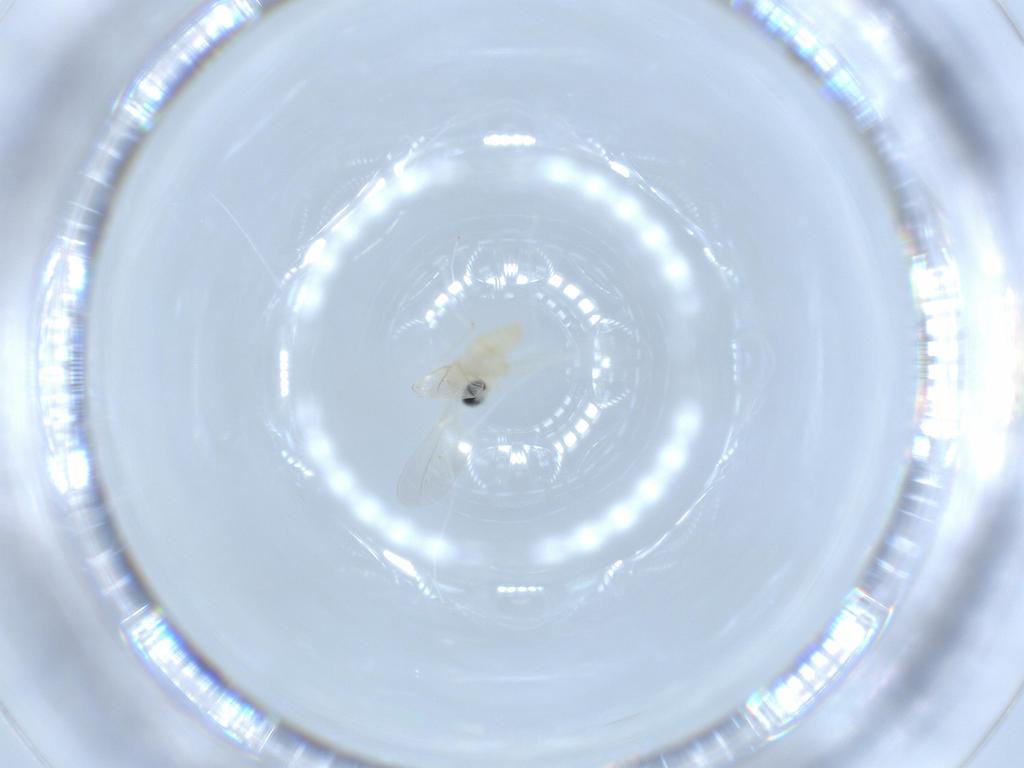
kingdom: Animalia
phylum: Arthropoda
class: Insecta
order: Diptera
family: Cecidomyiidae
